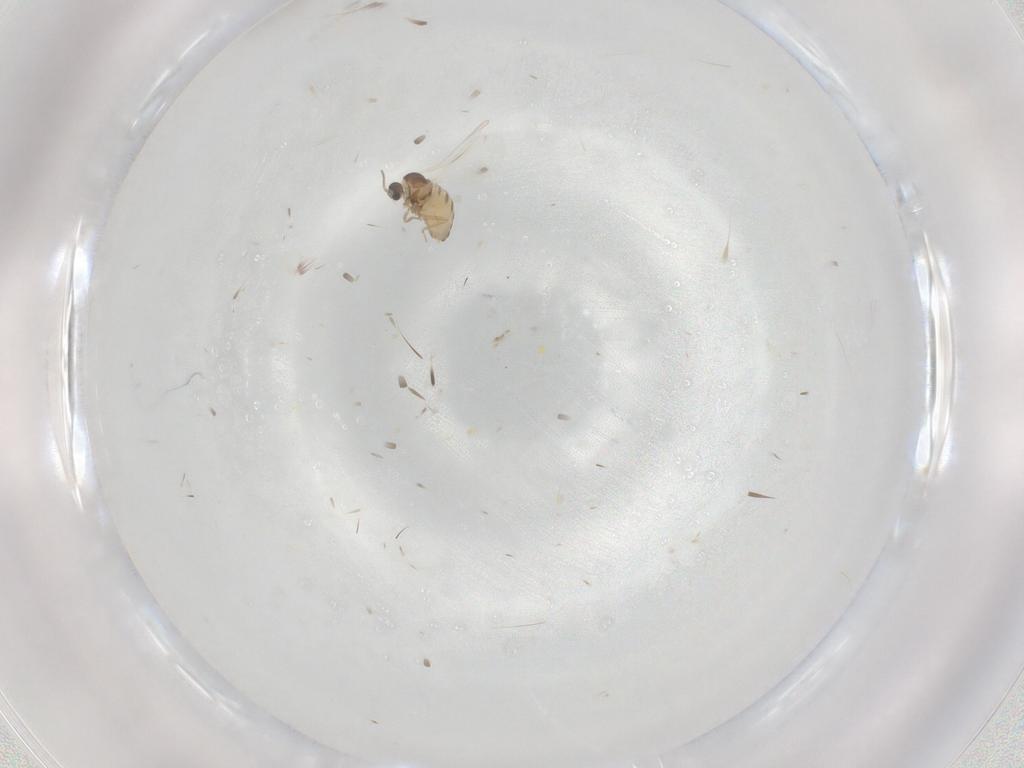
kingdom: Animalia
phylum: Arthropoda
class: Insecta
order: Diptera
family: Cecidomyiidae
